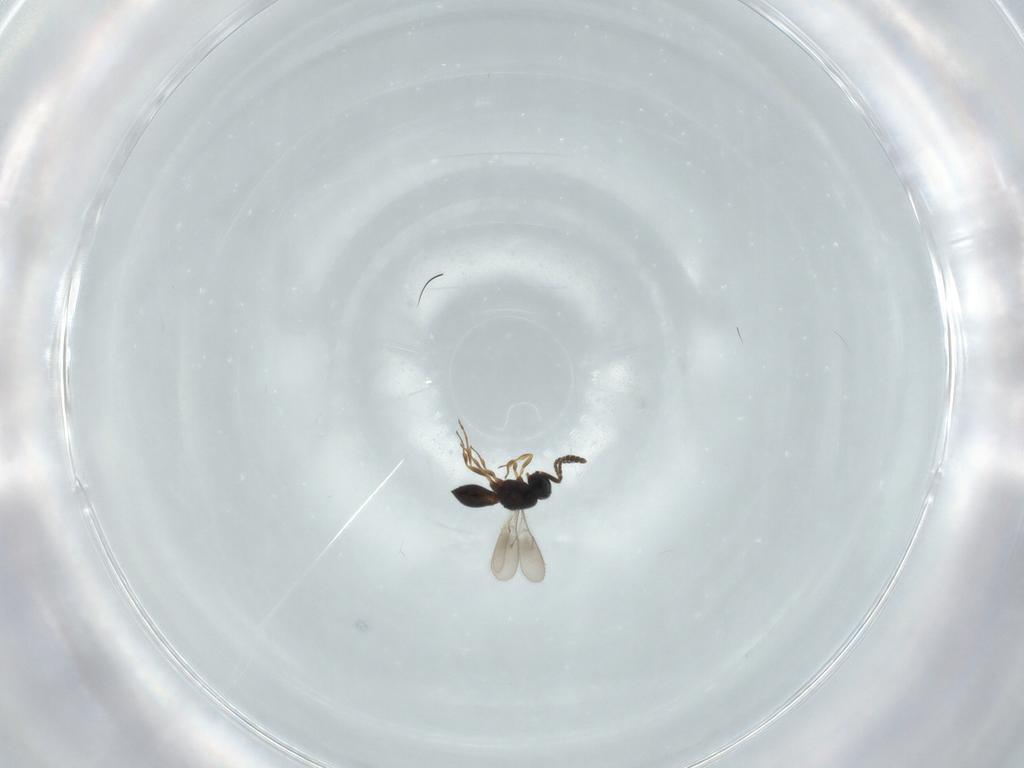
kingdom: Animalia
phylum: Arthropoda
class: Insecta
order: Hymenoptera
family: Scelionidae
